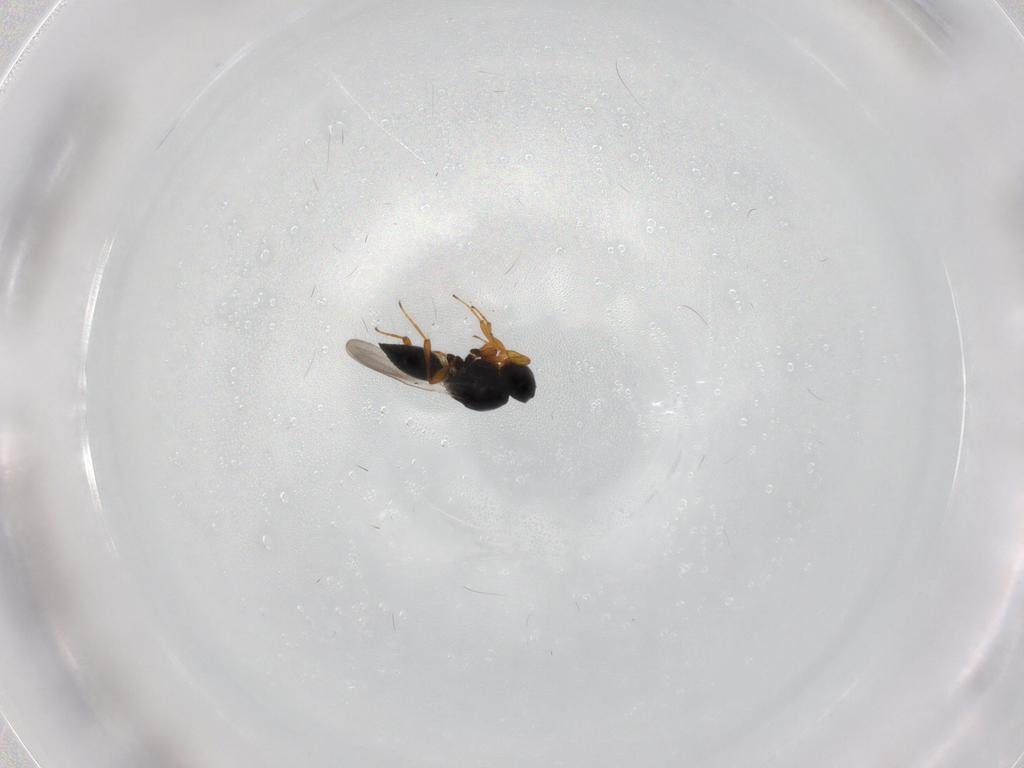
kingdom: Animalia
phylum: Arthropoda
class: Insecta
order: Hymenoptera
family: Platygastridae
